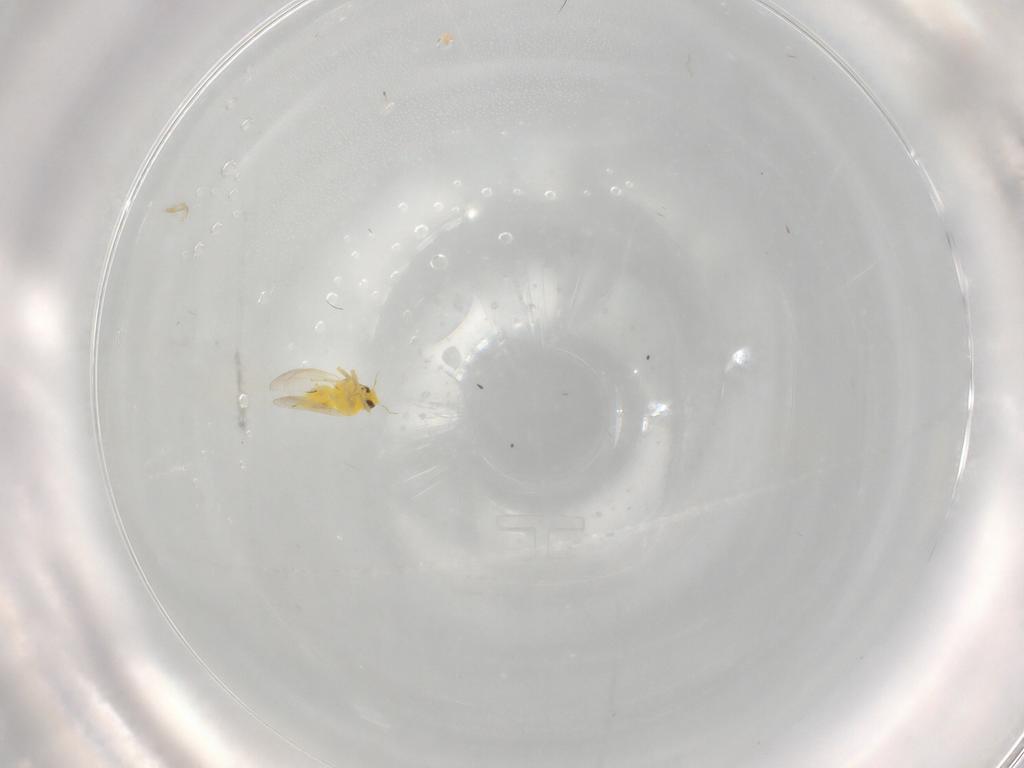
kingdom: Animalia
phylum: Arthropoda
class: Insecta
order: Hemiptera
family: Aleyrodidae
